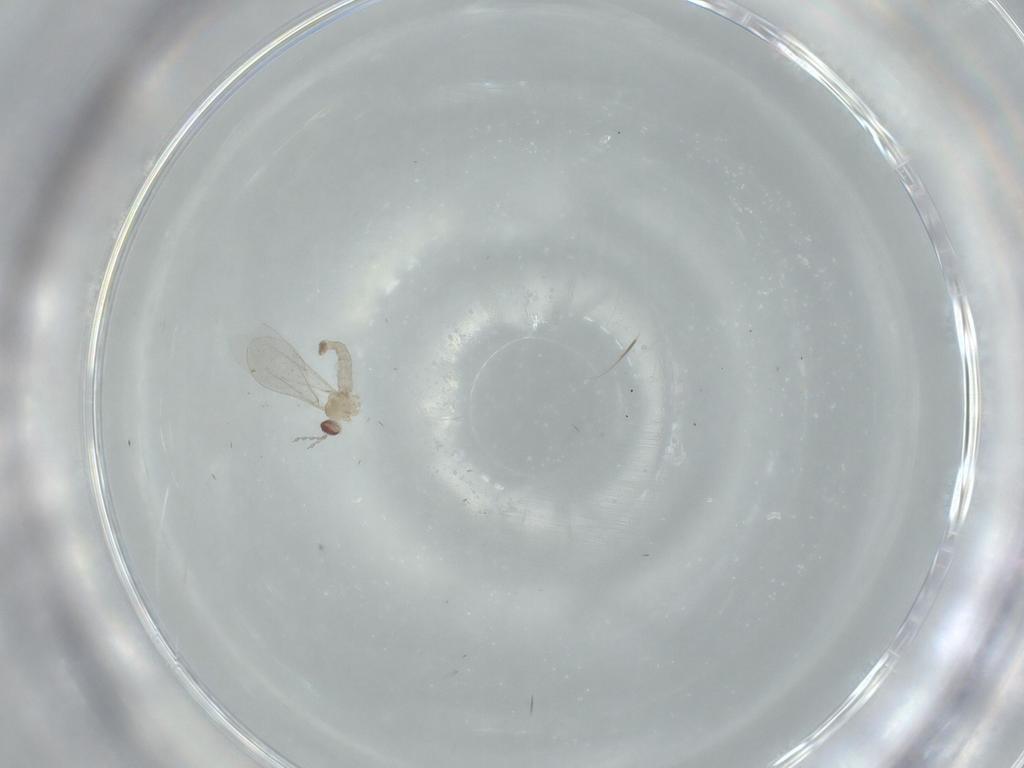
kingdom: Animalia
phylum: Arthropoda
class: Insecta
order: Diptera
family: Cecidomyiidae
